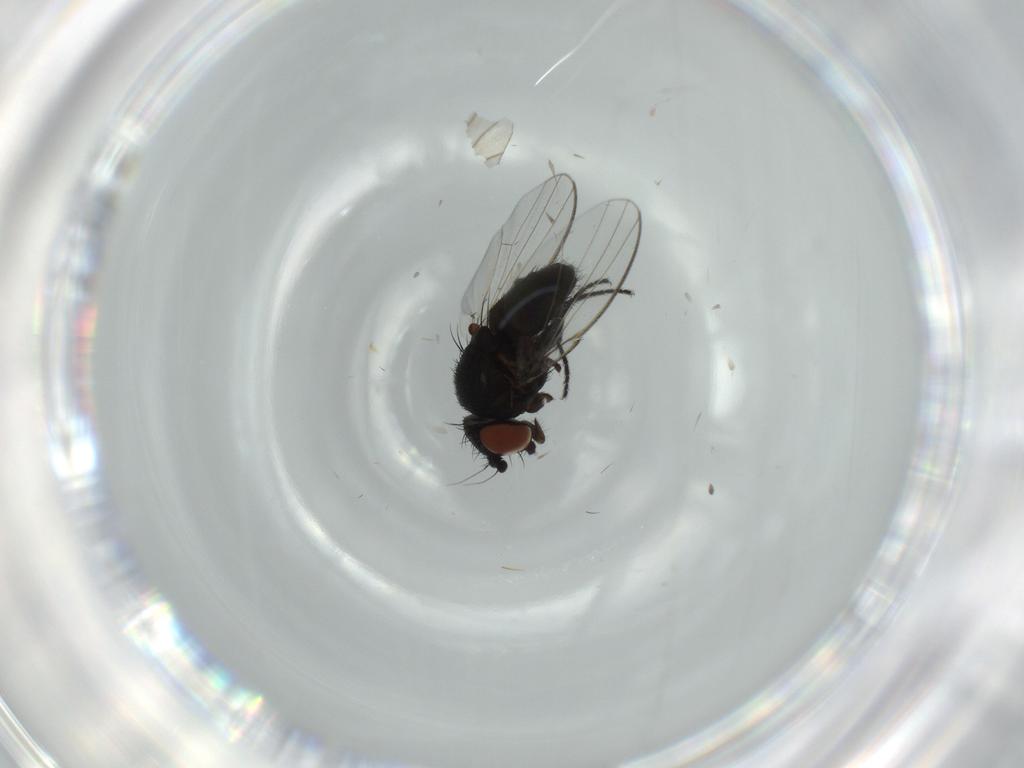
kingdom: Animalia
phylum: Arthropoda
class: Insecta
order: Diptera
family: Milichiidae
